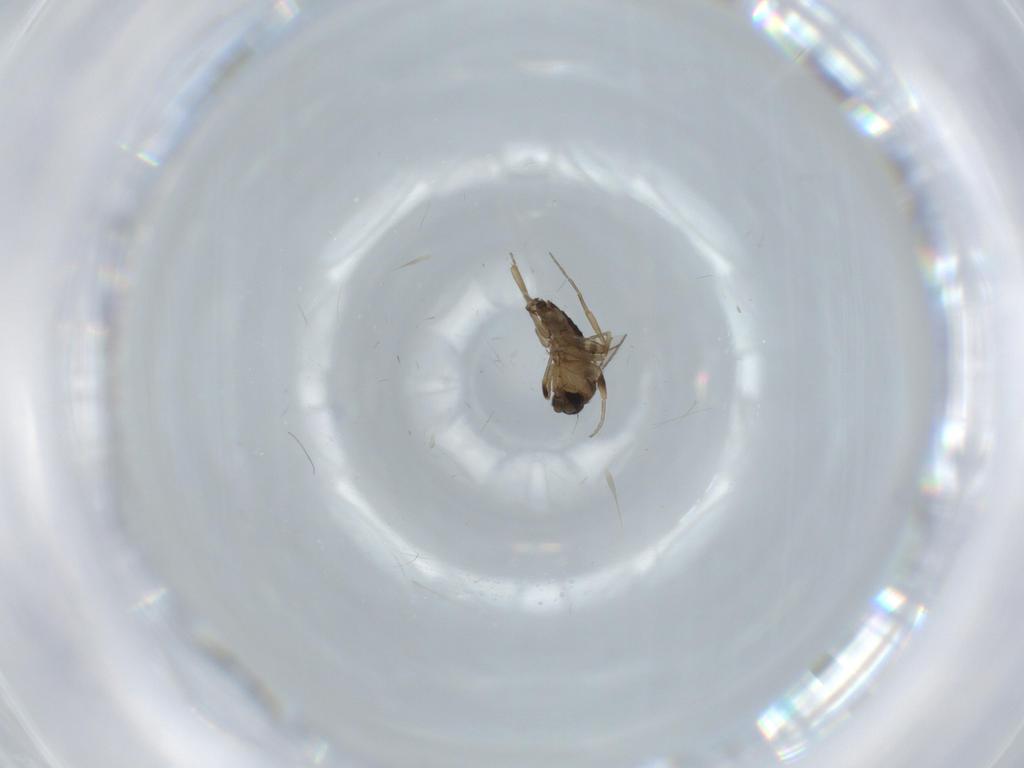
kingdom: Animalia
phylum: Arthropoda
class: Insecta
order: Diptera
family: Phoridae
